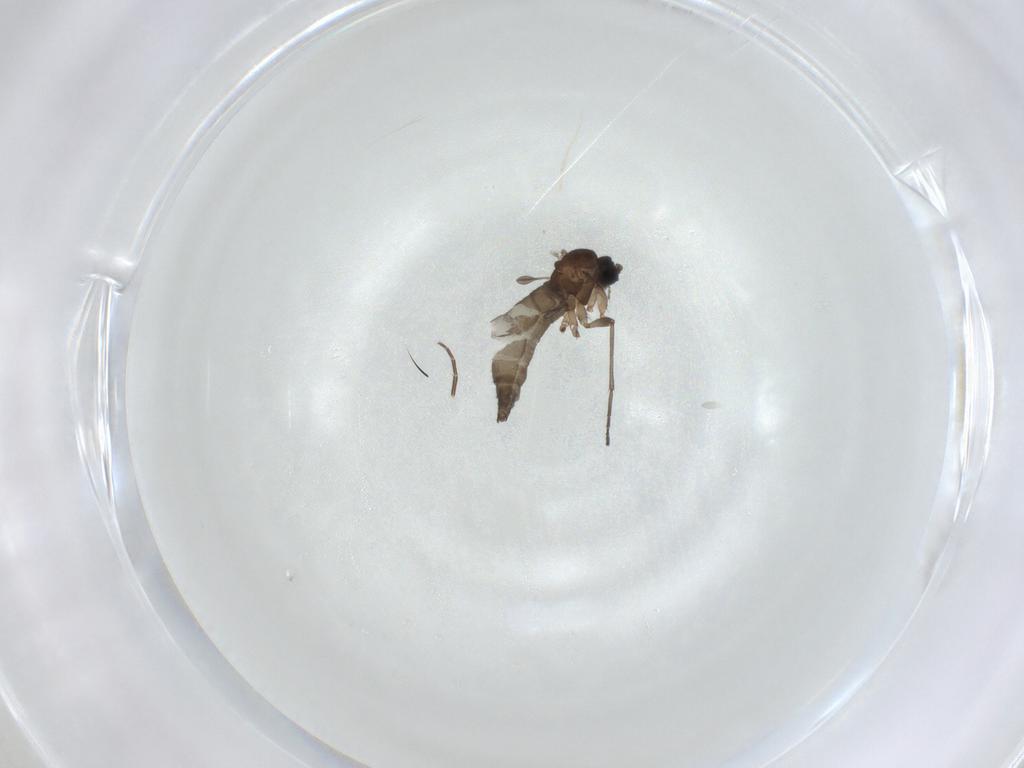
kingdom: Animalia
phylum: Arthropoda
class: Insecta
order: Diptera
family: Sciaridae
